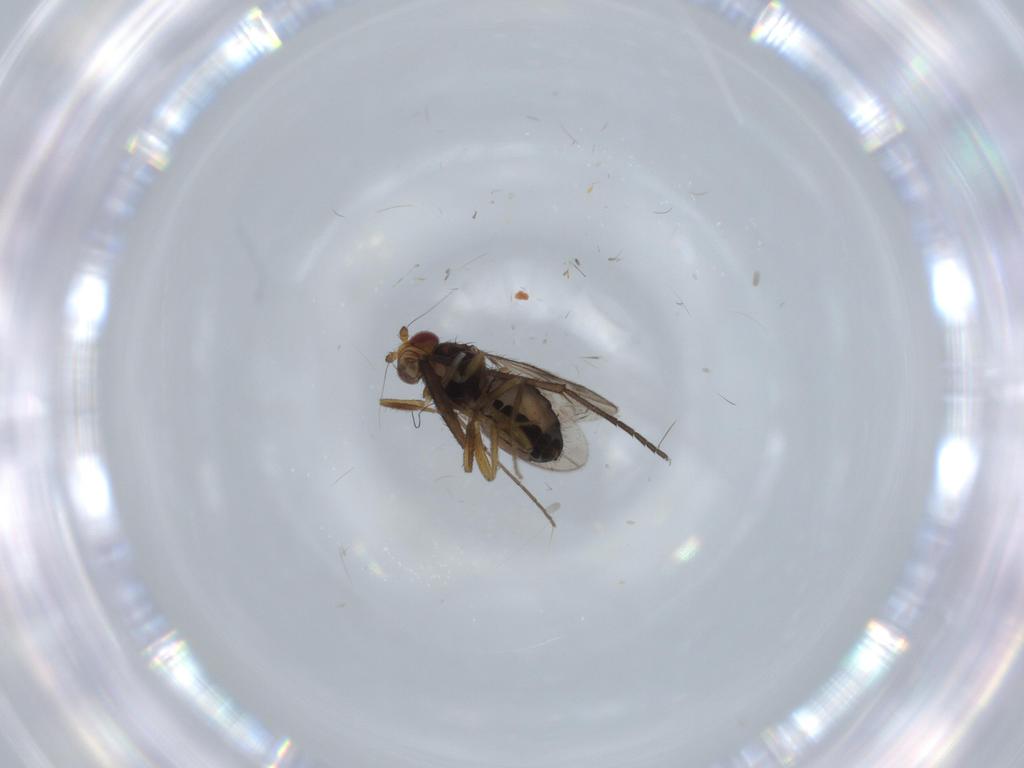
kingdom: Animalia
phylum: Arthropoda
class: Insecta
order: Diptera
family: Sphaeroceridae
